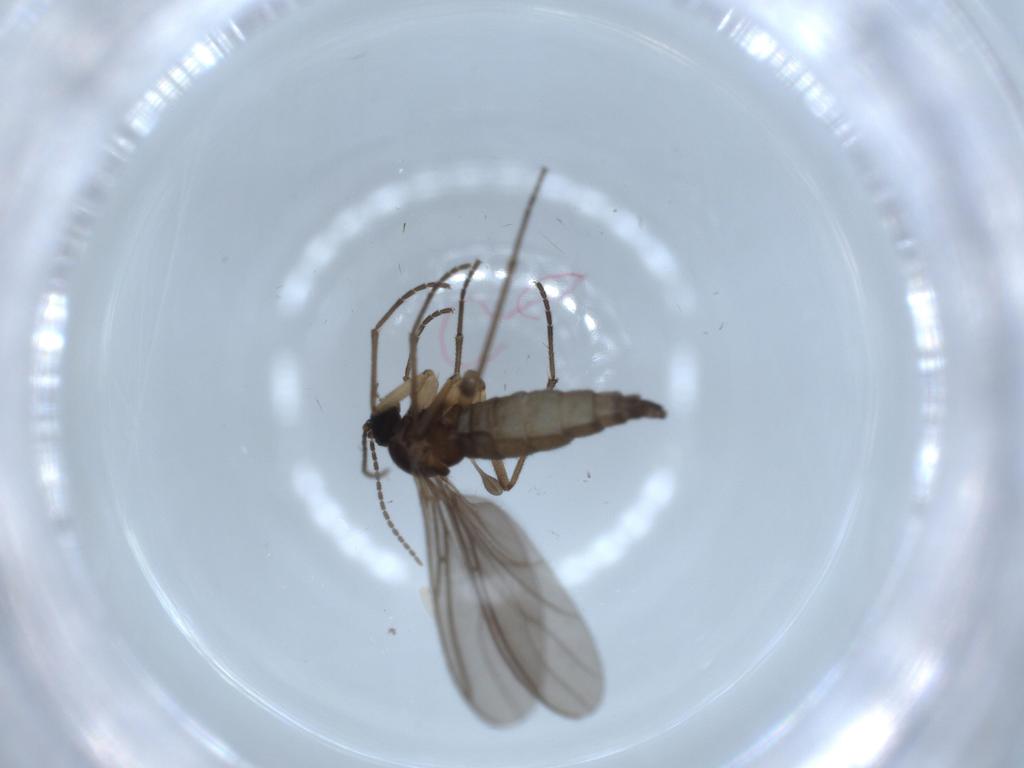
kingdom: Animalia
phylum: Arthropoda
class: Insecta
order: Diptera
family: Sciaridae
